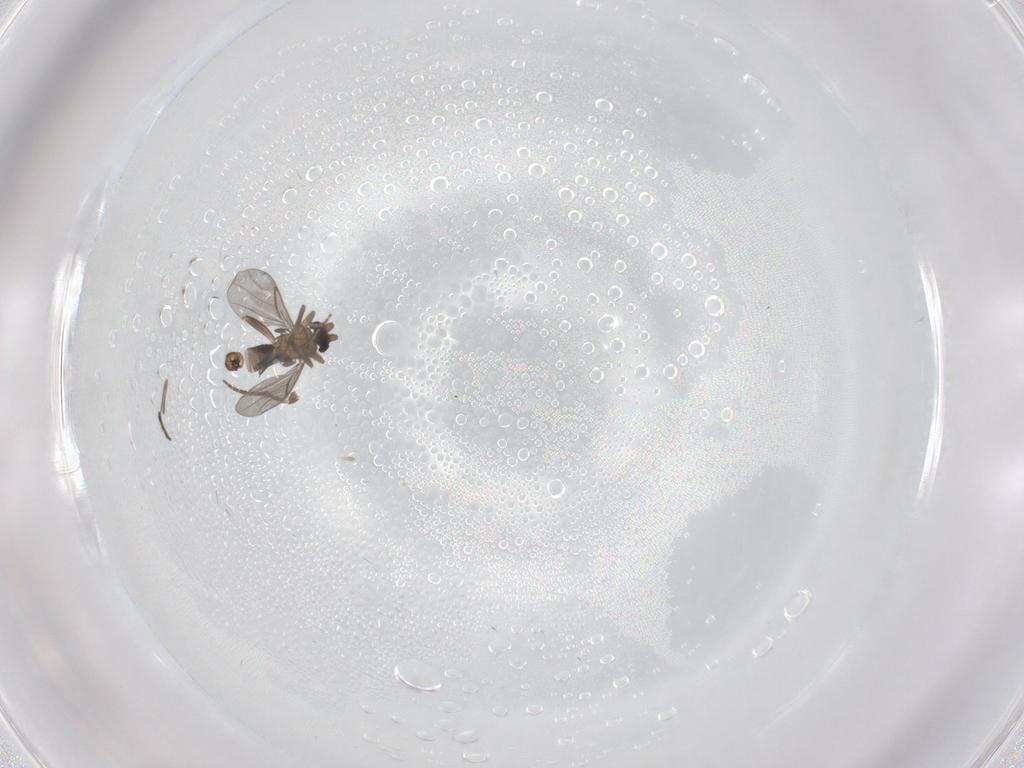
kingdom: Animalia
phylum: Arthropoda
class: Insecta
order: Diptera
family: Sciaridae
